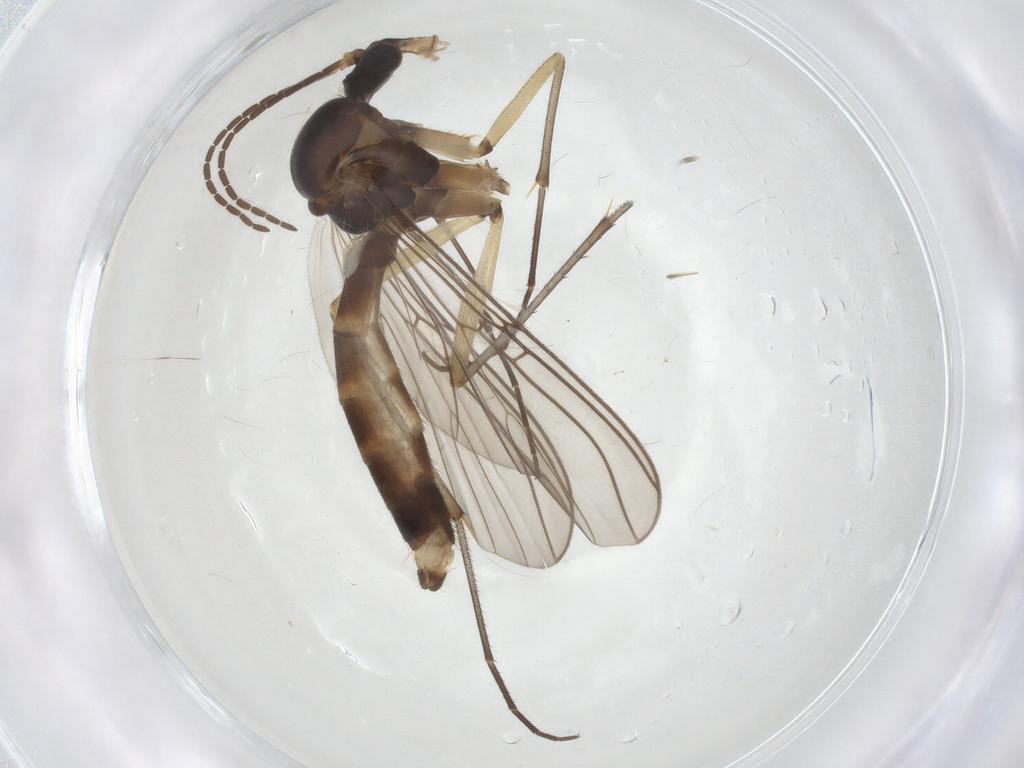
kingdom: Animalia
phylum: Arthropoda
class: Insecta
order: Diptera
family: Mycetophilidae
